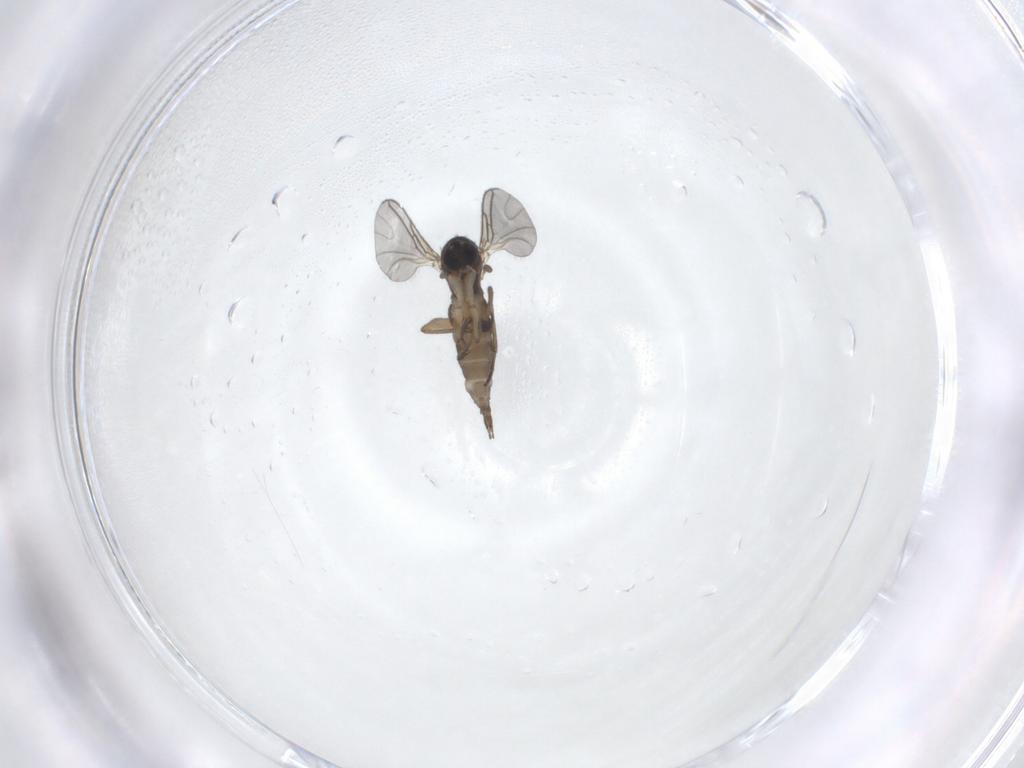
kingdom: Animalia
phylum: Arthropoda
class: Insecta
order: Diptera
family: Sciaridae
